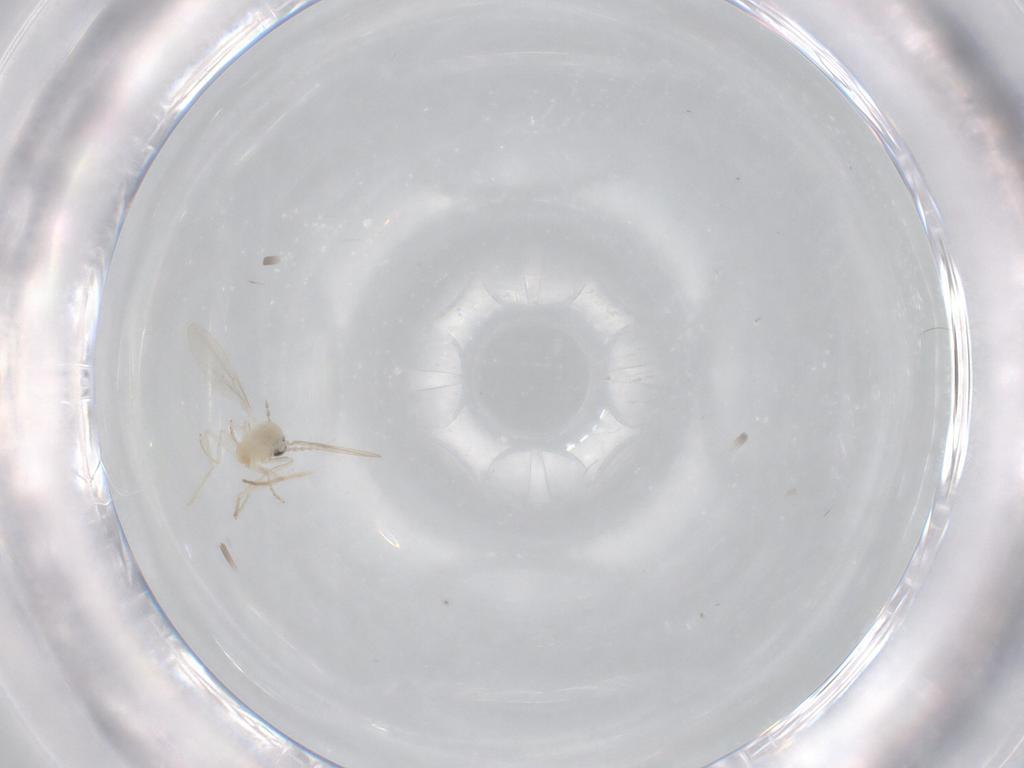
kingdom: Animalia
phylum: Arthropoda
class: Insecta
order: Diptera
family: Cecidomyiidae
